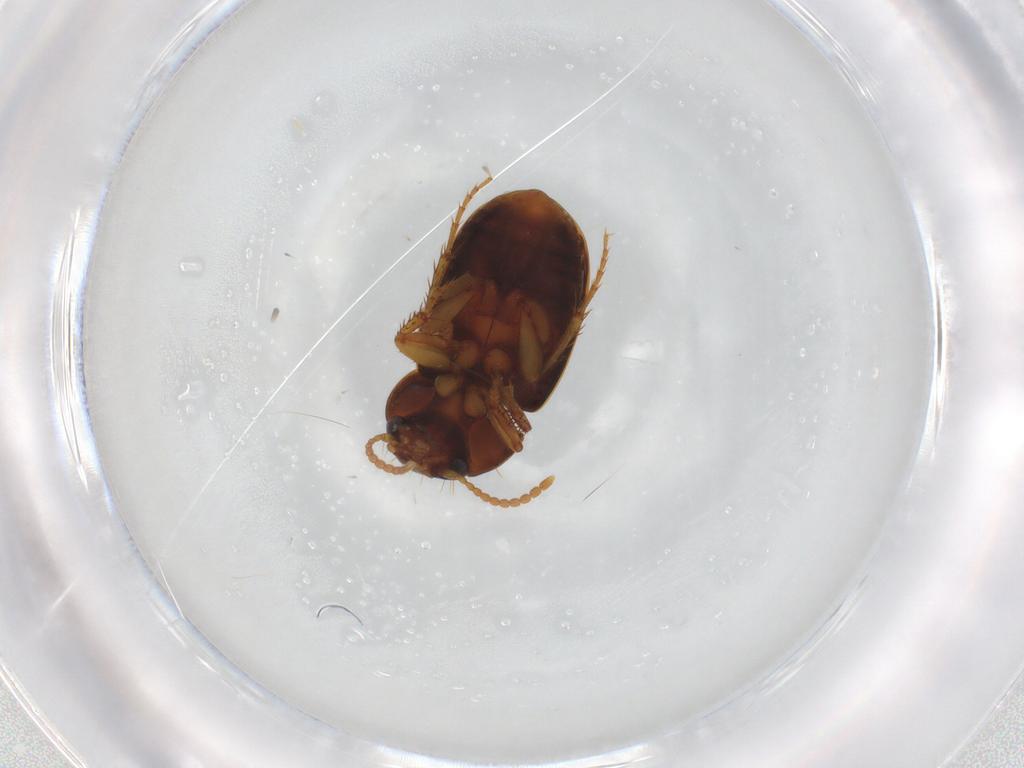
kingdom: Animalia
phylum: Arthropoda
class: Insecta
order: Coleoptera
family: Carabidae
